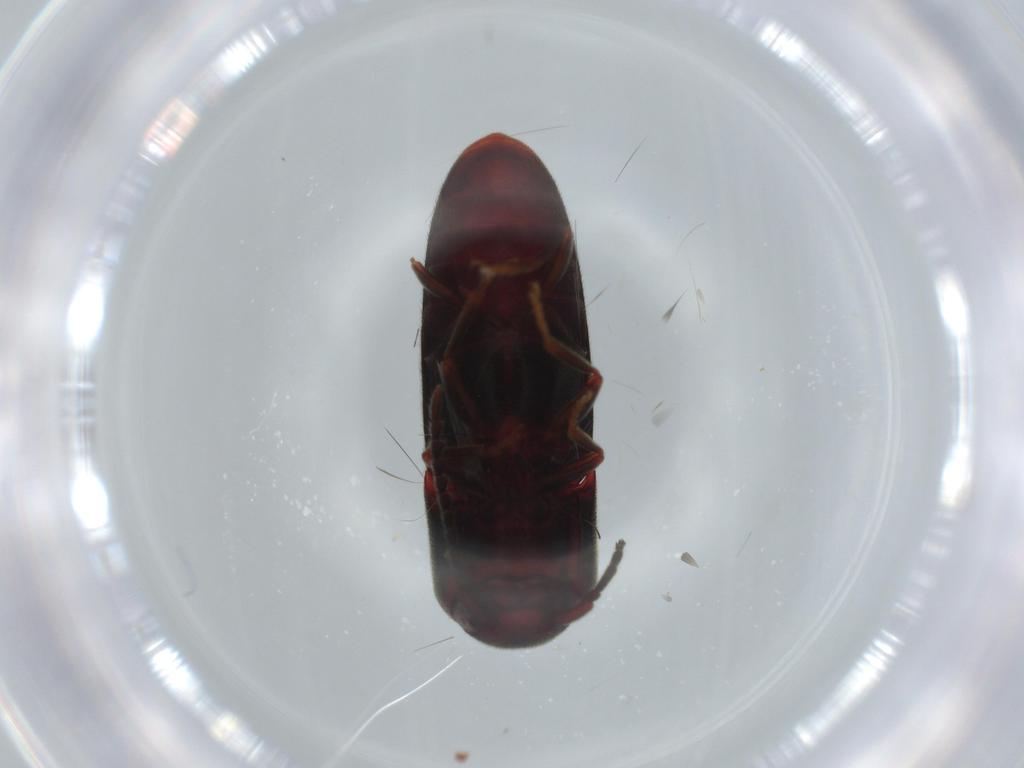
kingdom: Animalia
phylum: Arthropoda
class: Insecta
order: Coleoptera
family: Eucnemidae
